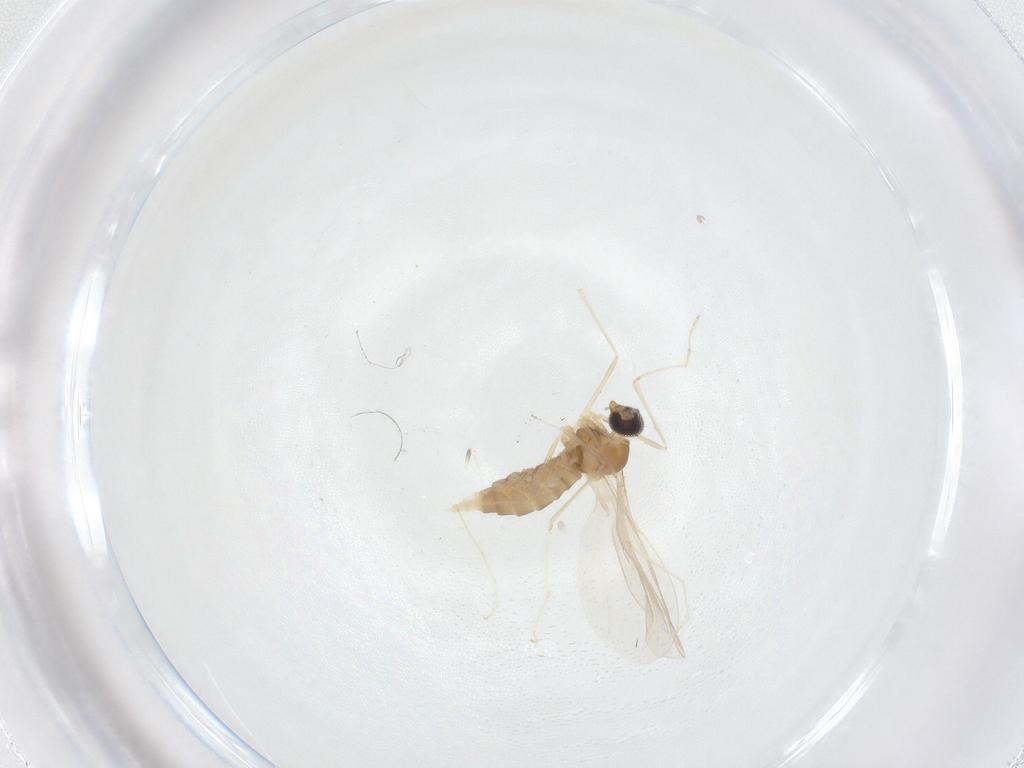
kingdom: Animalia
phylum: Arthropoda
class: Insecta
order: Diptera
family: Cecidomyiidae
